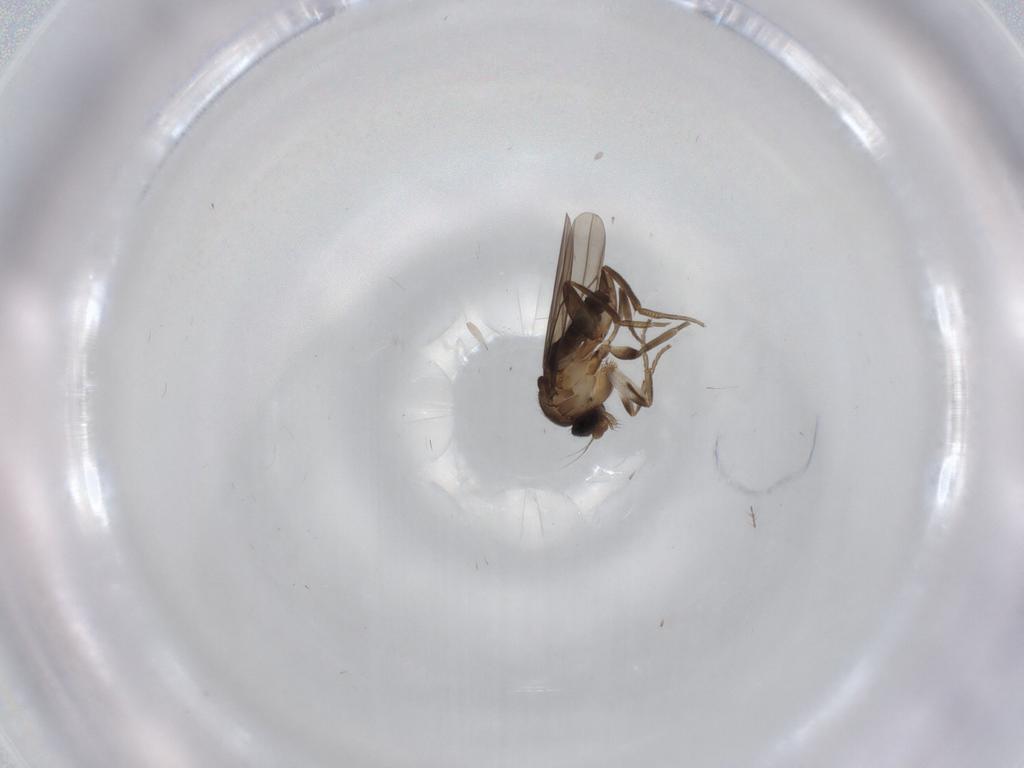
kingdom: Animalia
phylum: Arthropoda
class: Insecta
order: Diptera
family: Chironomidae
